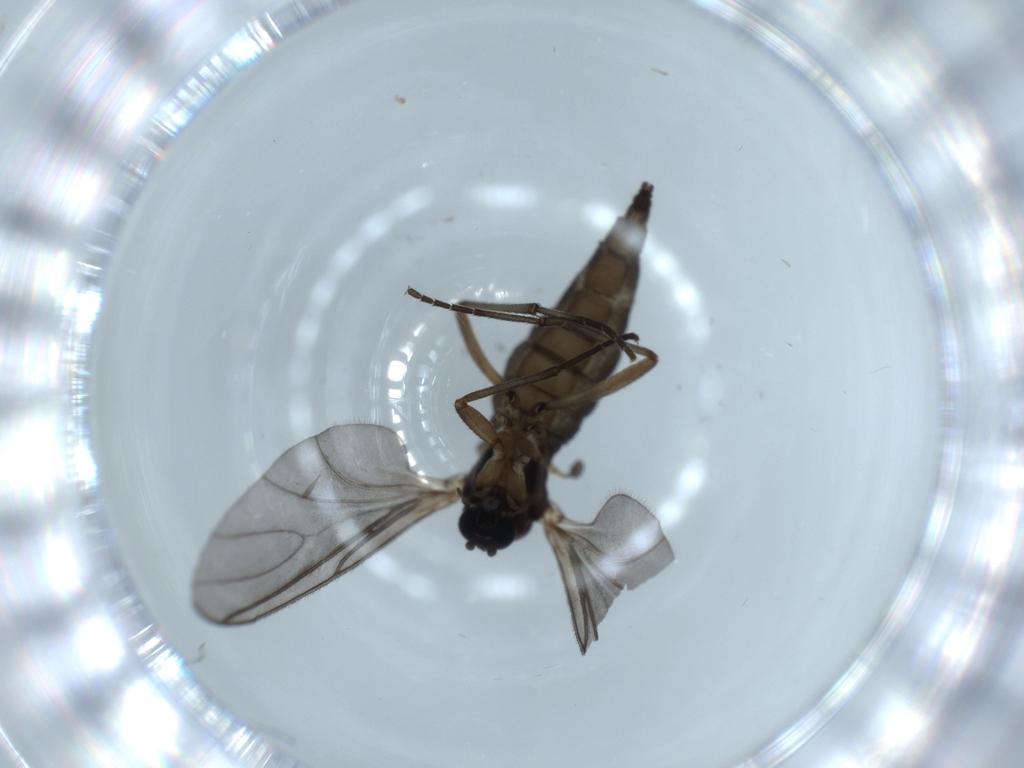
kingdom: Animalia
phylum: Arthropoda
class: Insecta
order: Diptera
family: Sciaridae
